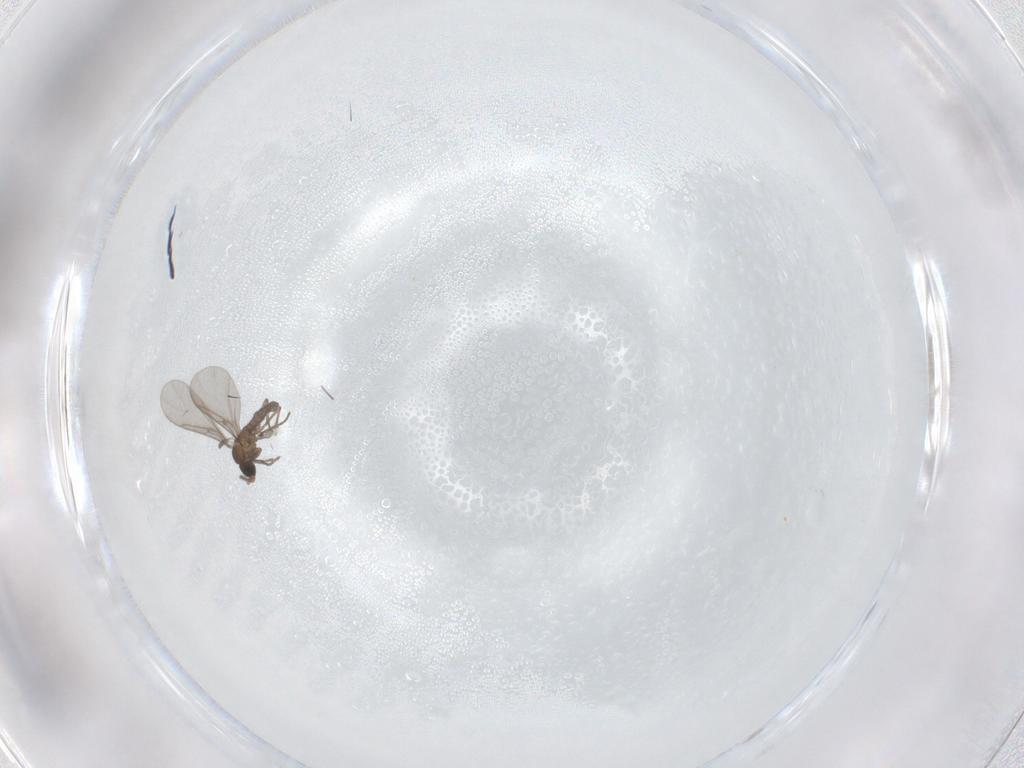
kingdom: Animalia
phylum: Arthropoda
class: Insecta
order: Diptera
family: Sciaridae
